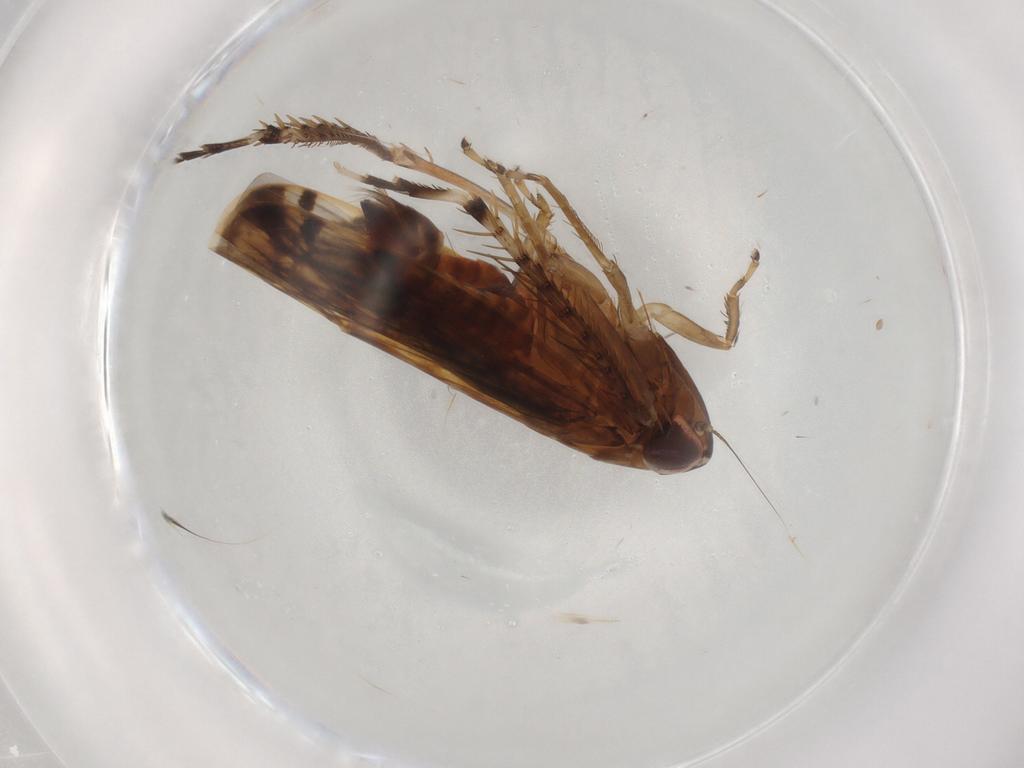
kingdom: Animalia
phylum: Arthropoda
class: Insecta
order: Hemiptera
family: Cicadellidae
